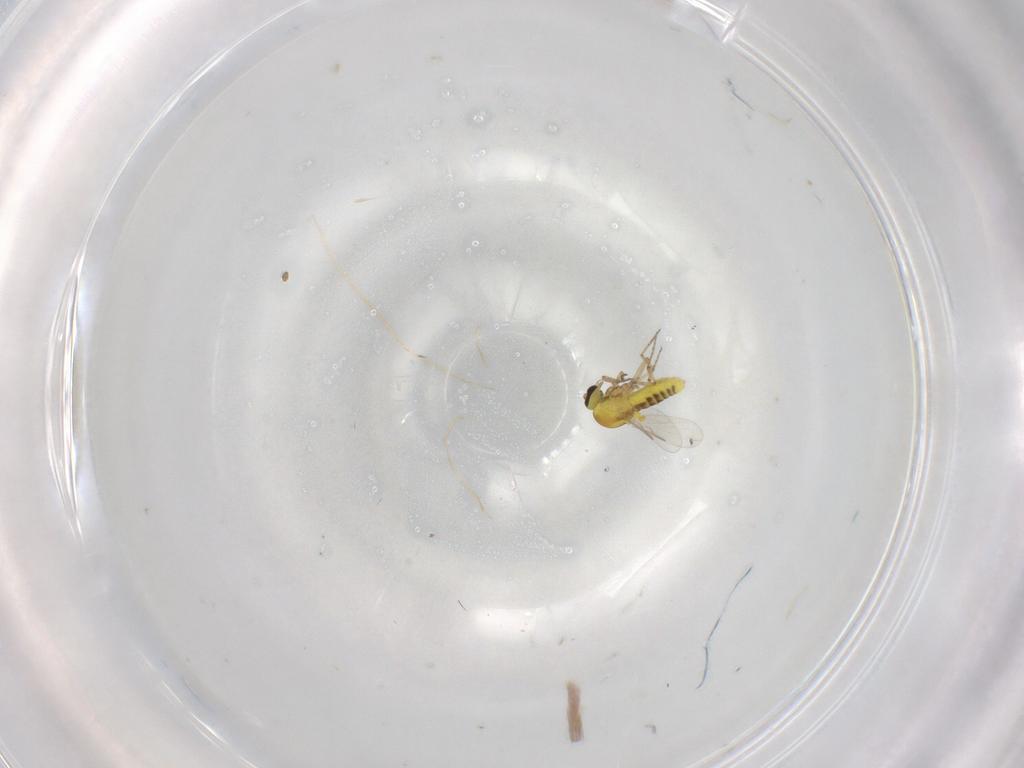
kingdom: Animalia
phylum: Arthropoda
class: Insecta
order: Diptera
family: Ceratopogonidae
